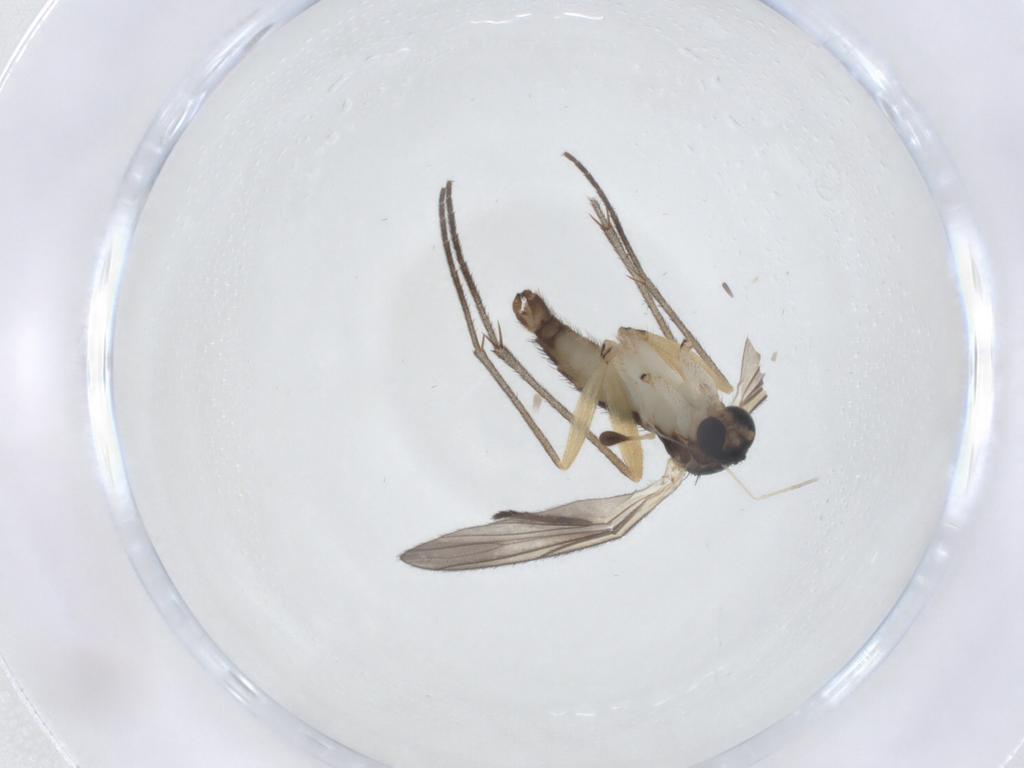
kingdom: Animalia
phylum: Arthropoda
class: Insecta
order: Diptera
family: Sciaridae
